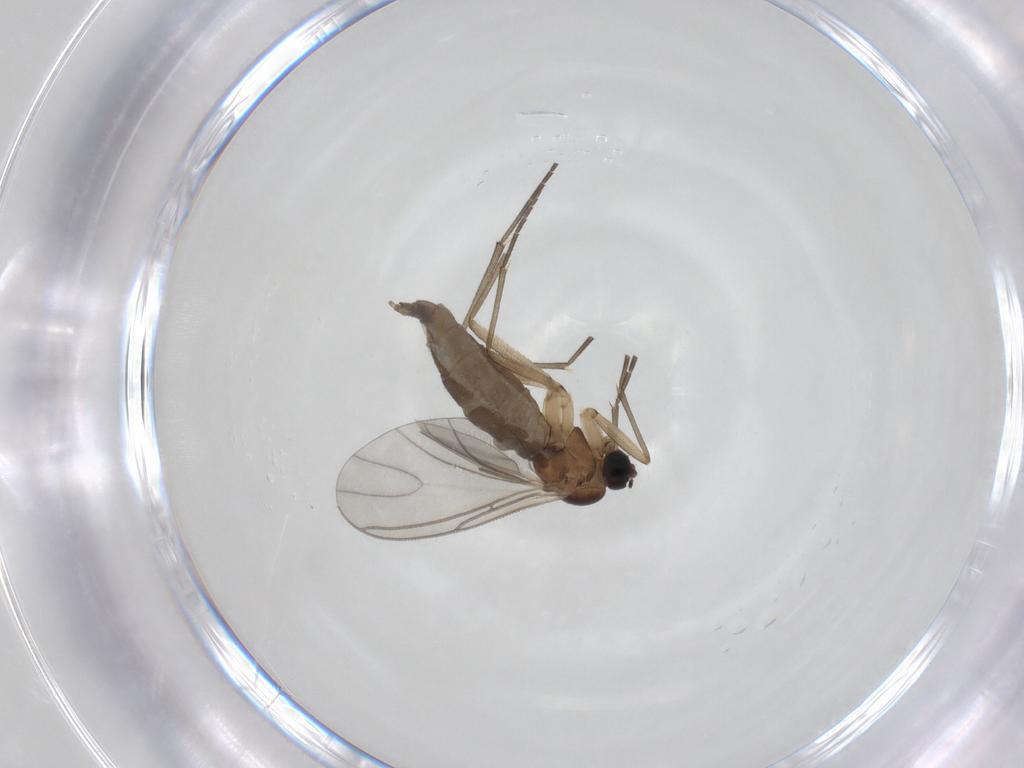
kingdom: Animalia
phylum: Arthropoda
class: Insecta
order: Diptera
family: Sciaridae
